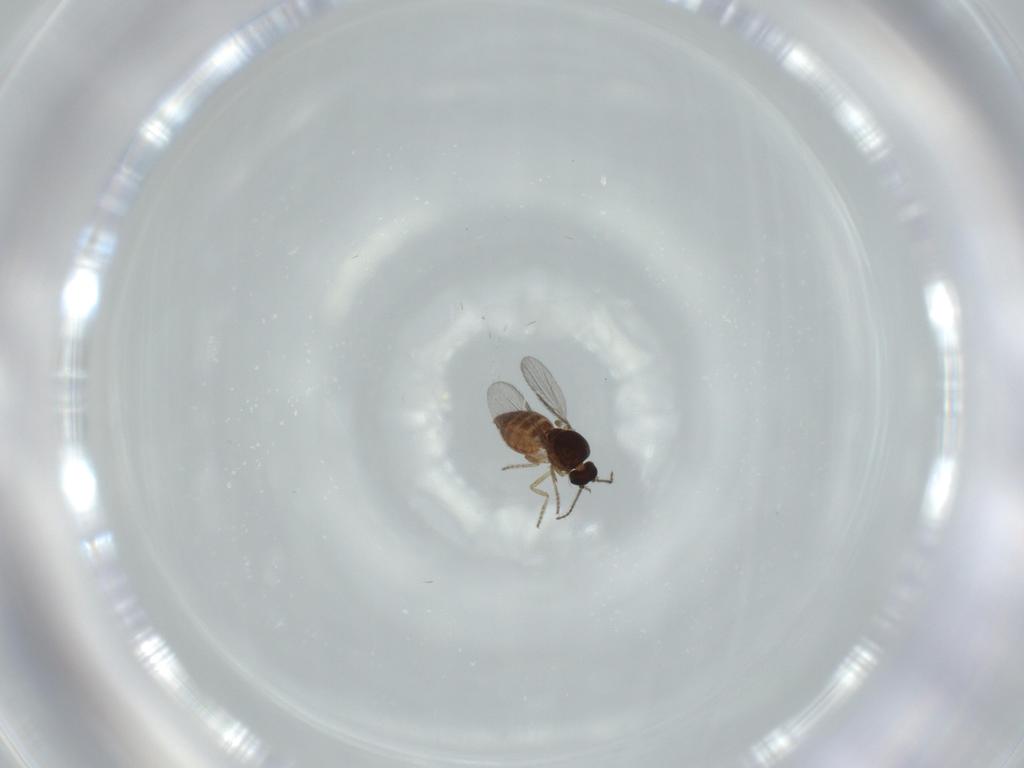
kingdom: Animalia
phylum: Arthropoda
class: Insecta
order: Diptera
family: Ceratopogonidae
